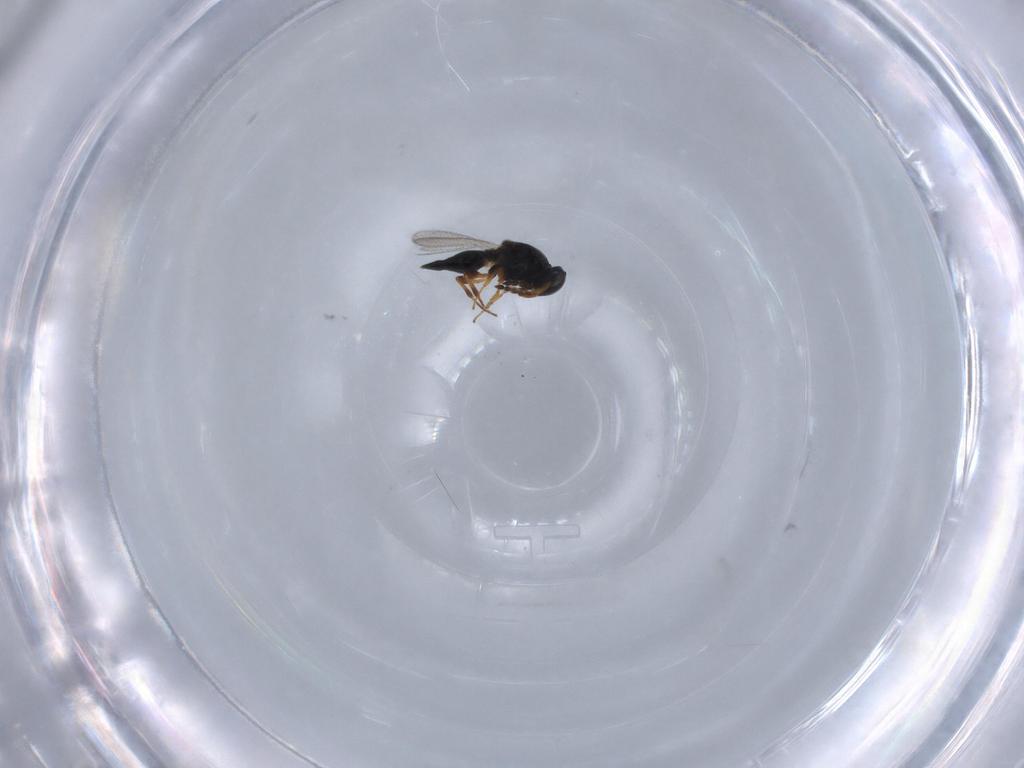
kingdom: Animalia
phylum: Arthropoda
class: Insecta
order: Hymenoptera
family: Platygastridae
